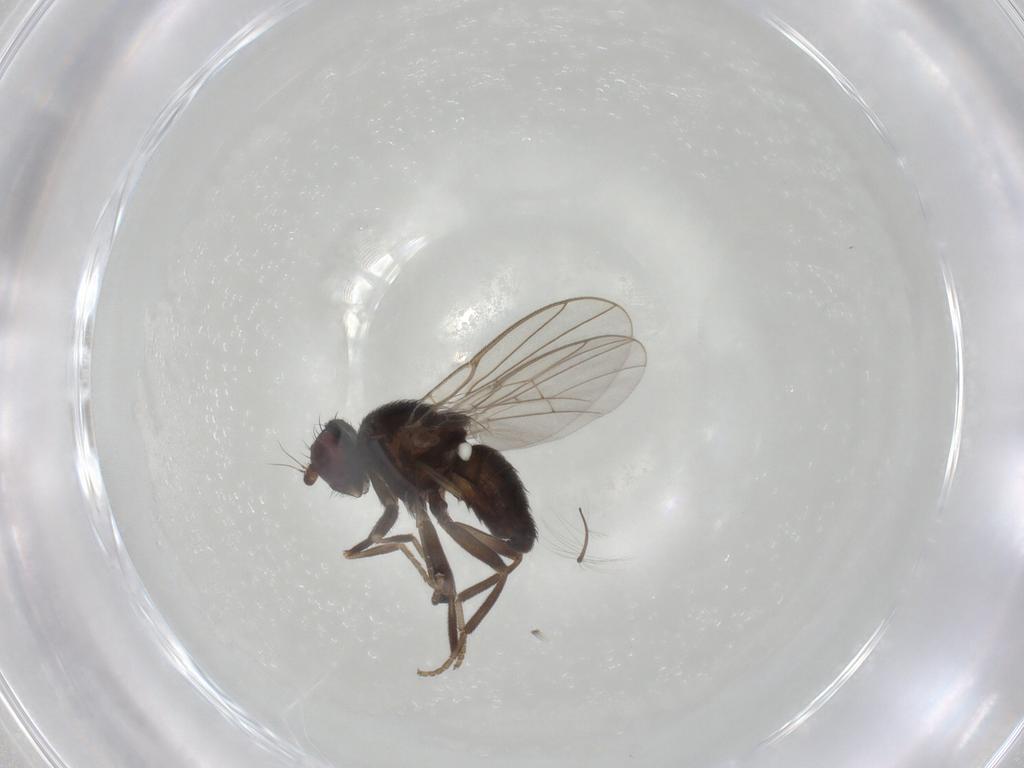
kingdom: Animalia
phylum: Arthropoda
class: Insecta
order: Diptera
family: Agromyzidae
